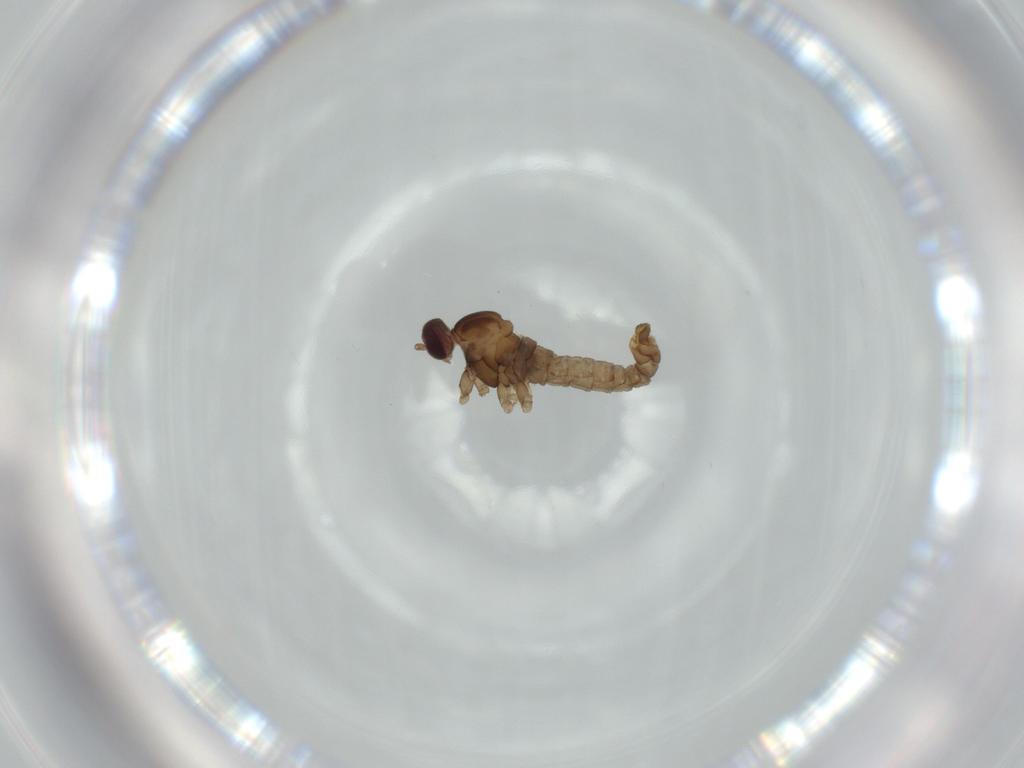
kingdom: Animalia
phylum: Arthropoda
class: Insecta
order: Diptera
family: Cecidomyiidae
